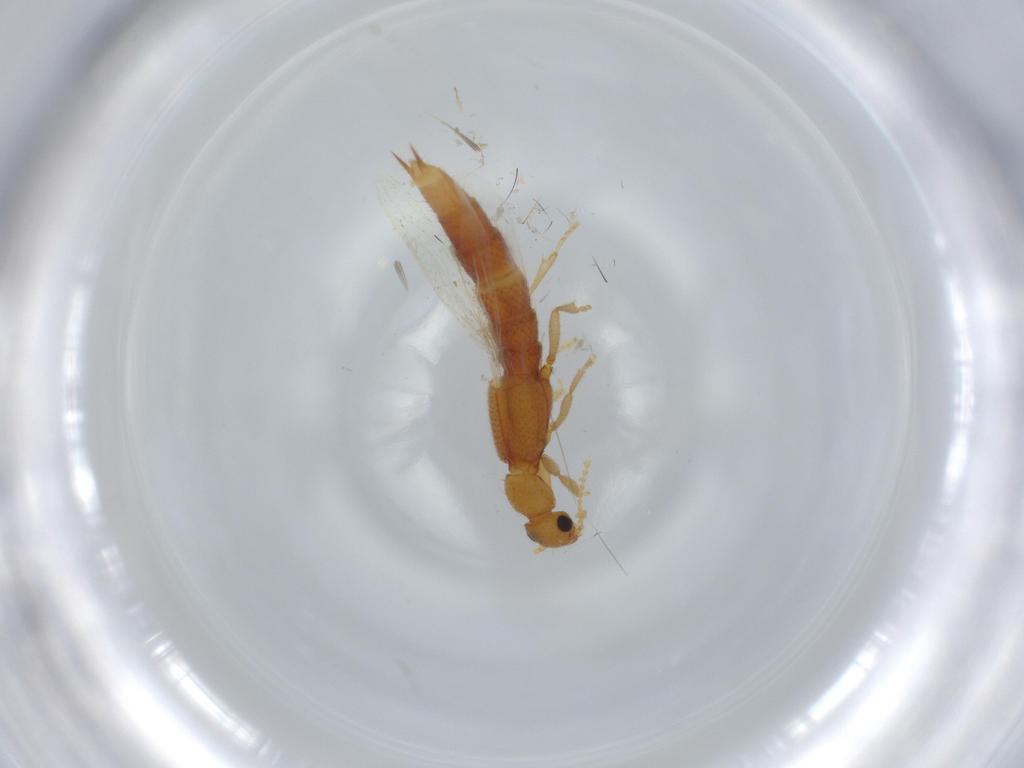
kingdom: Animalia
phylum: Arthropoda
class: Insecta
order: Coleoptera
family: Staphylinidae
